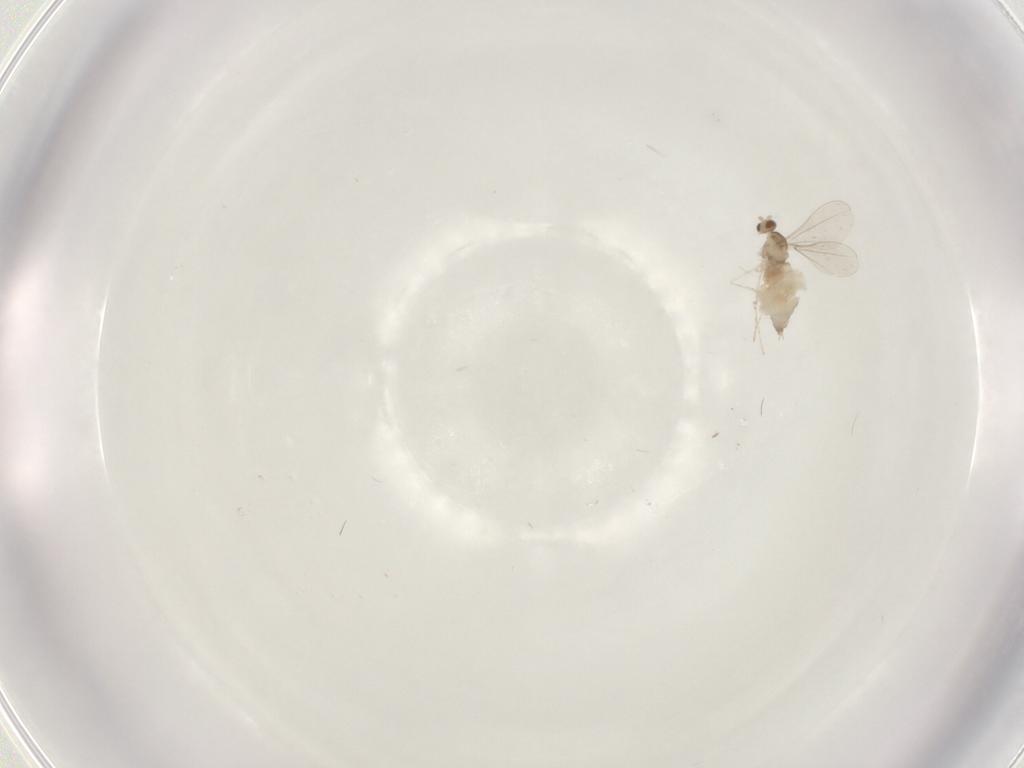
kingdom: Animalia
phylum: Arthropoda
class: Insecta
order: Diptera
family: Cecidomyiidae
